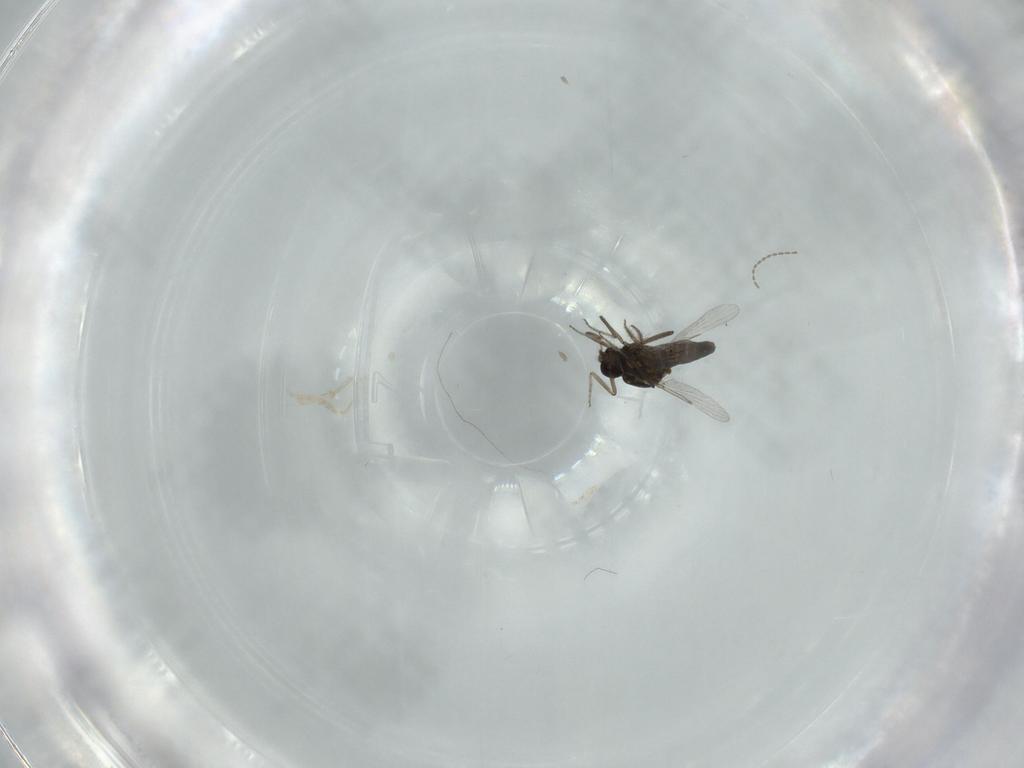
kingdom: Animalia
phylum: Arthropoda
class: Insecta
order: Diptera
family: Cecidomyiidae
